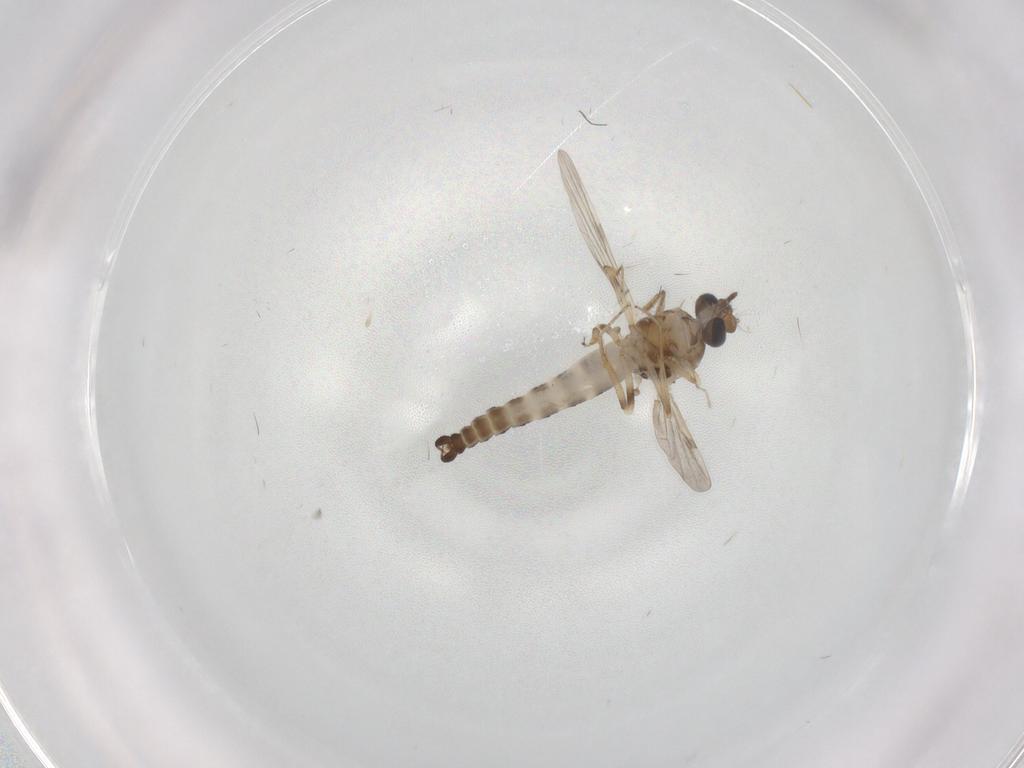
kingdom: Animalia
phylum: Arthropoda
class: Insecta
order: Diptera
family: Ceratopogonidae
